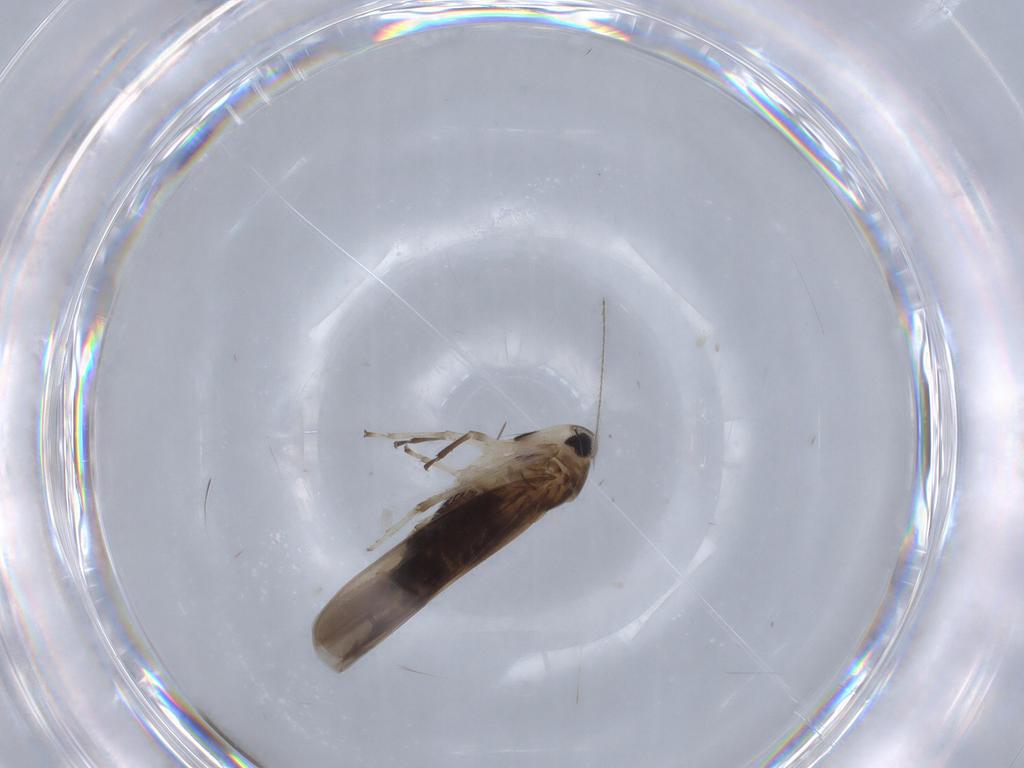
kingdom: Animalia
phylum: Arthropoda
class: Insecta
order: Hemiptera
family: Cicadellidae
